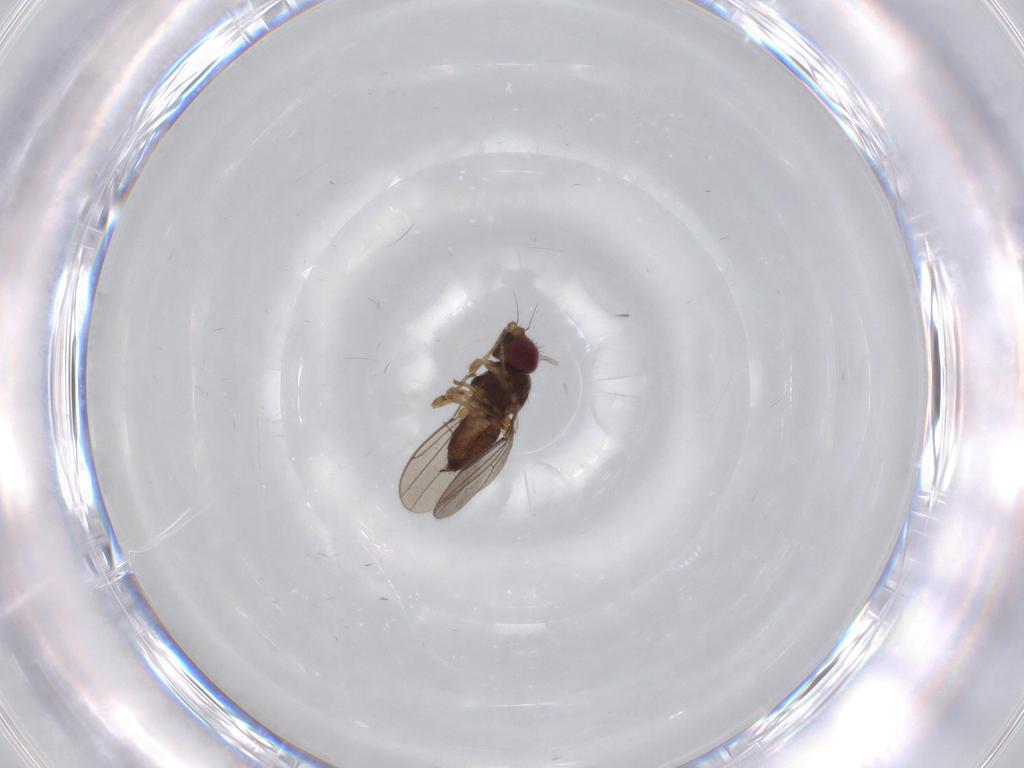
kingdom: Animalia
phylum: Arthropoda
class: Insecta
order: Diptera
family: Chloropidae
